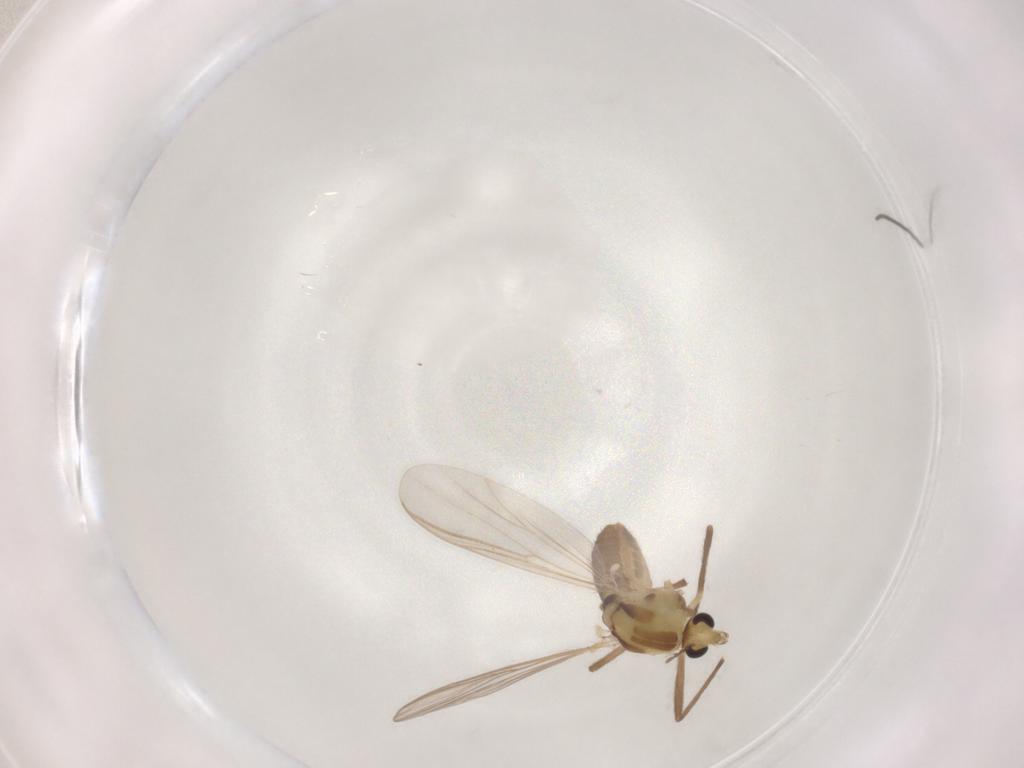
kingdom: Animalia
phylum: Arthropoda
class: Insecta
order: Diptera
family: Chironomidae
